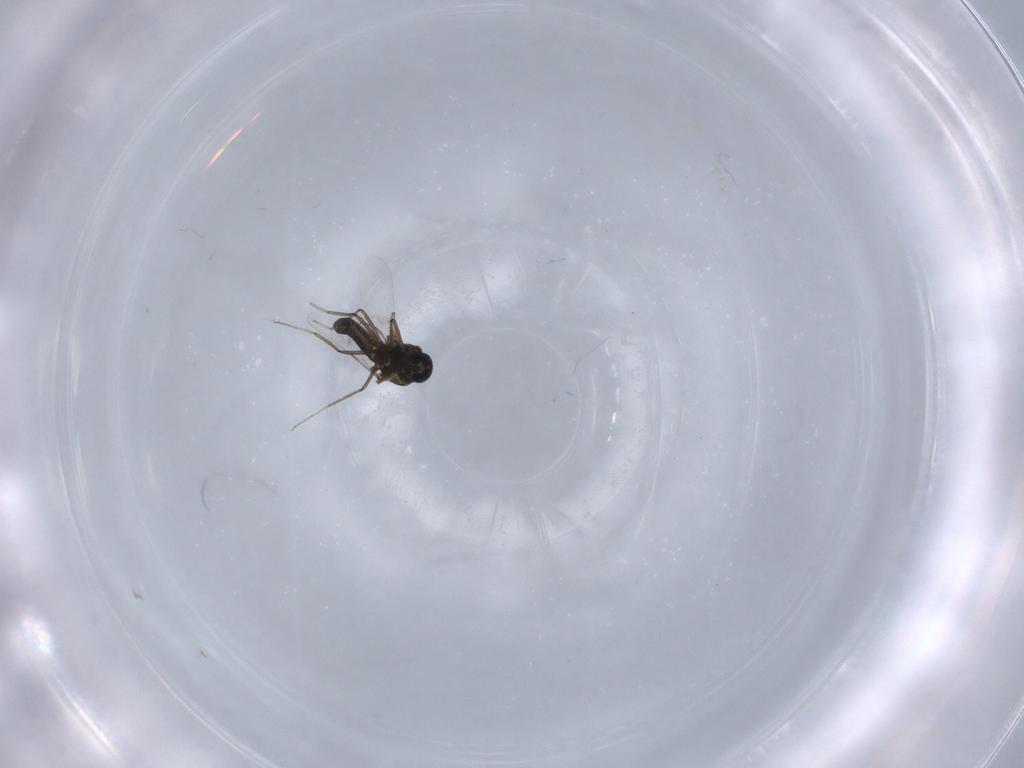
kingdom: Animalia
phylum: Arthropoda
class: Insecta
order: Diptera
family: Ceratopogonidae
